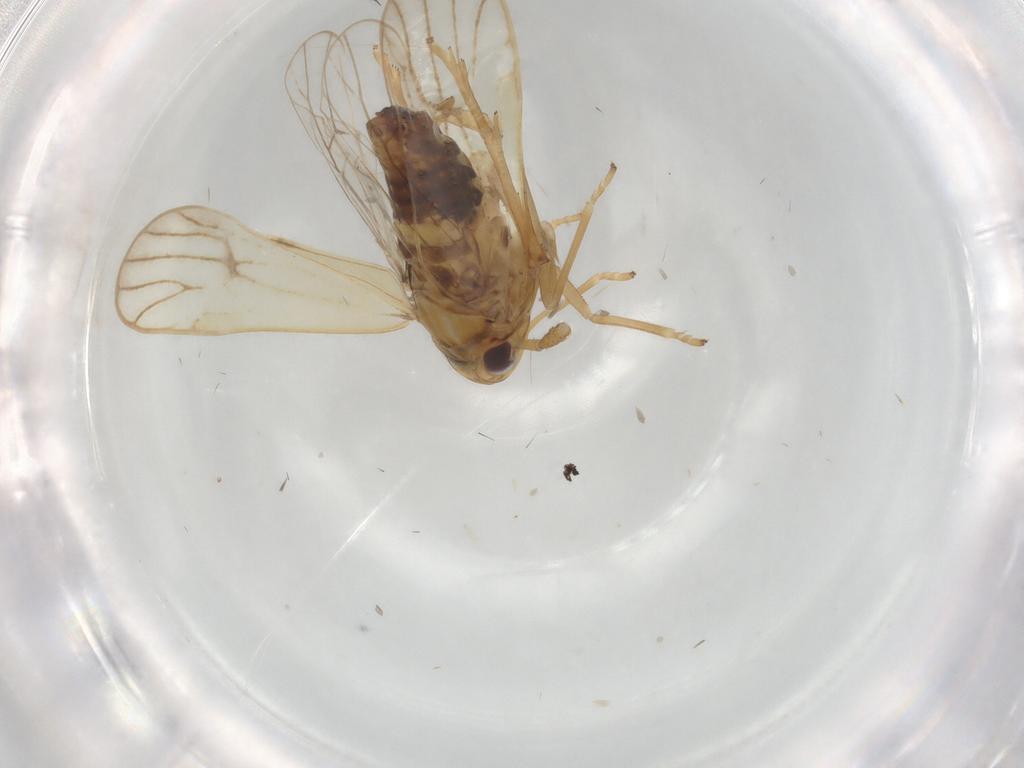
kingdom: Animalia
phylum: Arthropoda
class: Insecta
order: Hemiptera
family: Delphacidae
